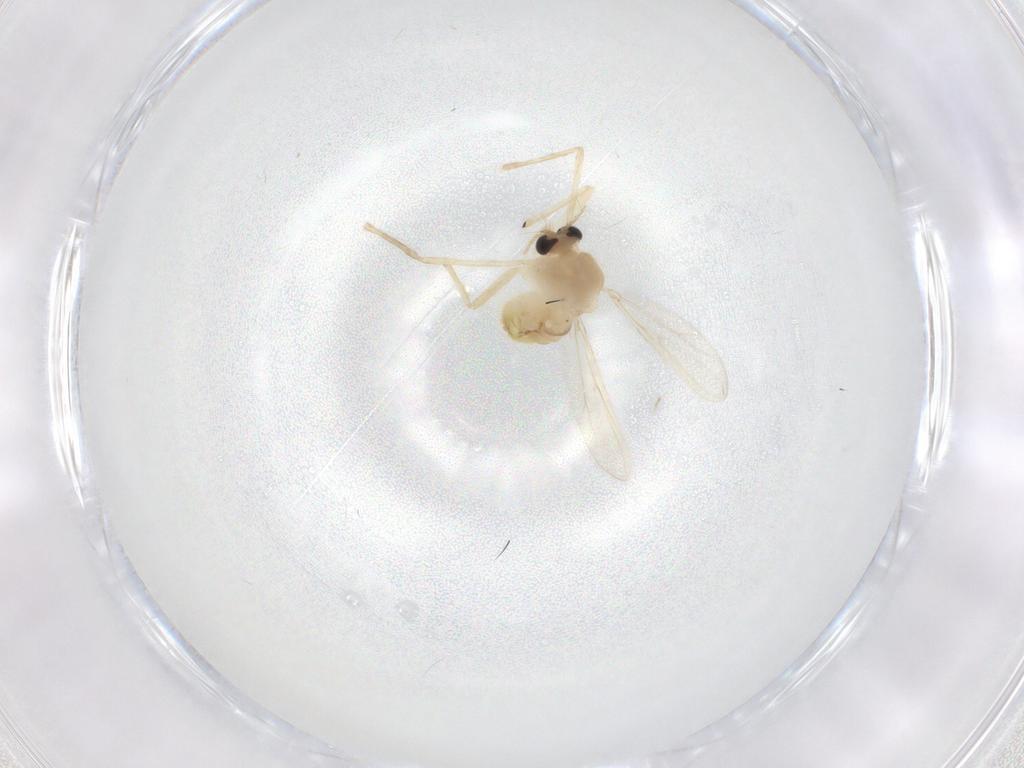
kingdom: Animalia
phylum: Arthropoda
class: Insecta
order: Diptera
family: Chironomidae
